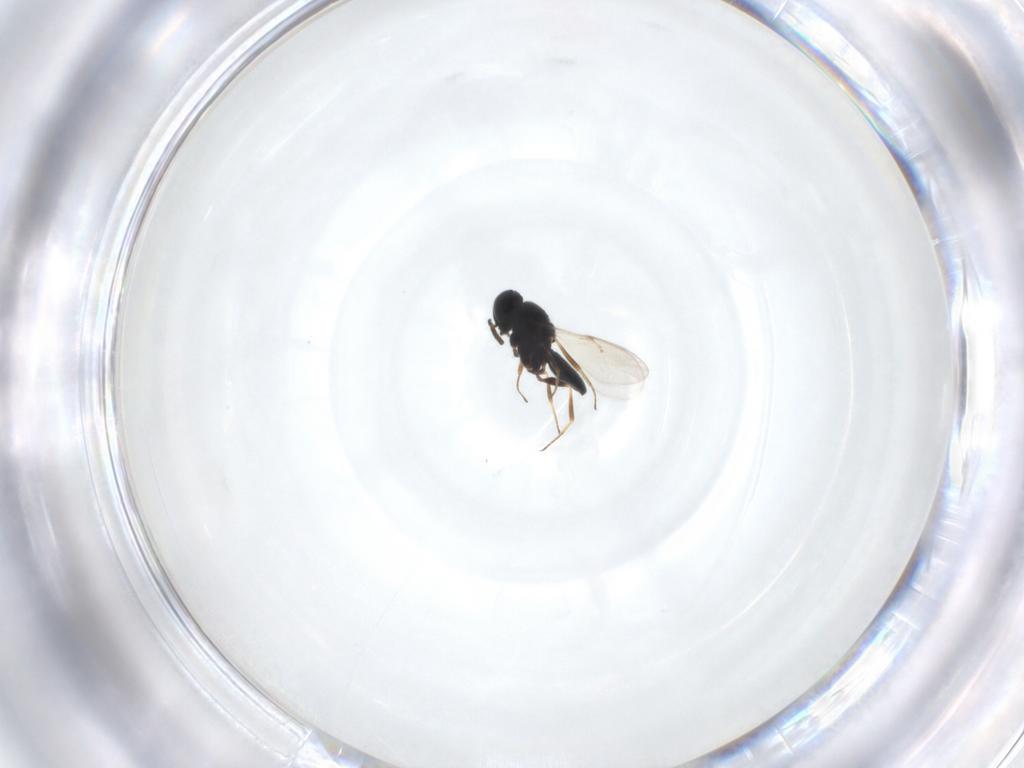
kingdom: Animalia
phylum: Arthropoda
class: Insecta
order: Hymenoptera
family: Scelionidae
